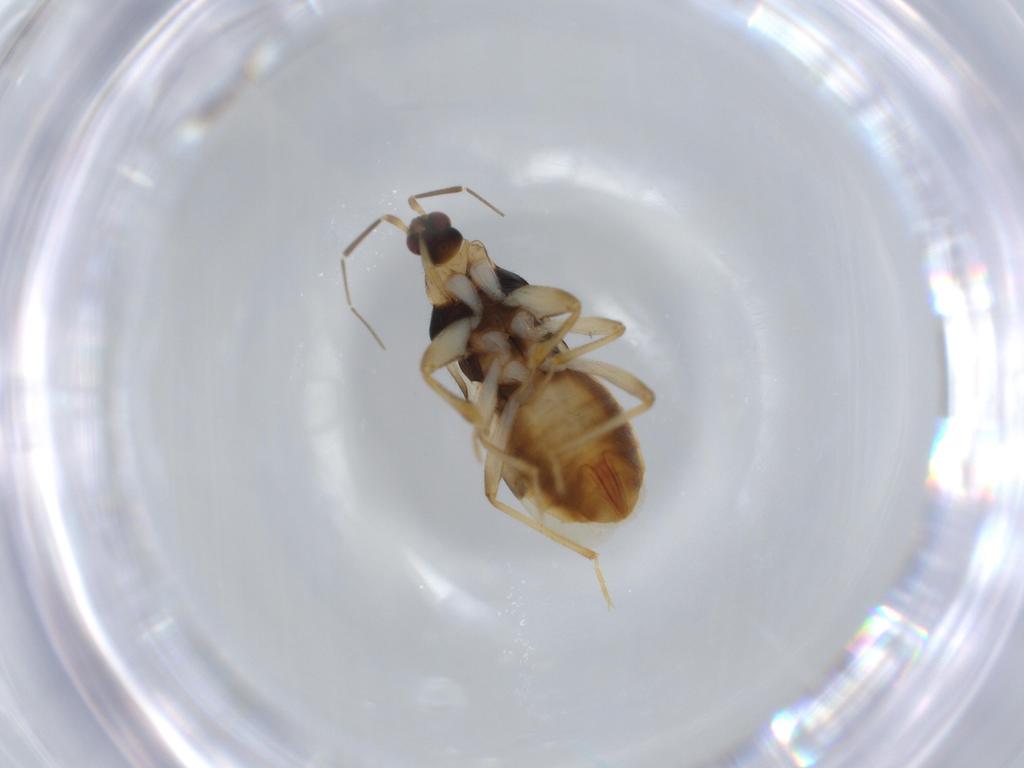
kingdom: Animalia
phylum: Arthropoda
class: Insecta
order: Hemiptera
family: Nabidae
